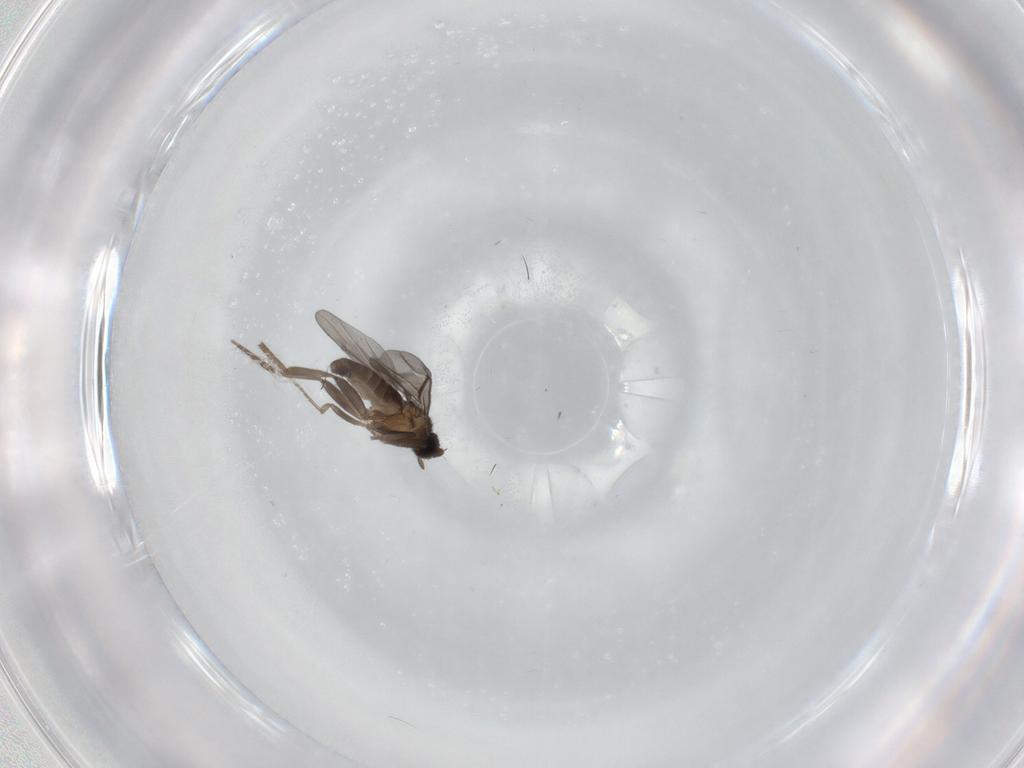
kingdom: Animalia
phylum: Arthropoda
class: Insecta
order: Diptera
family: Phoridae
